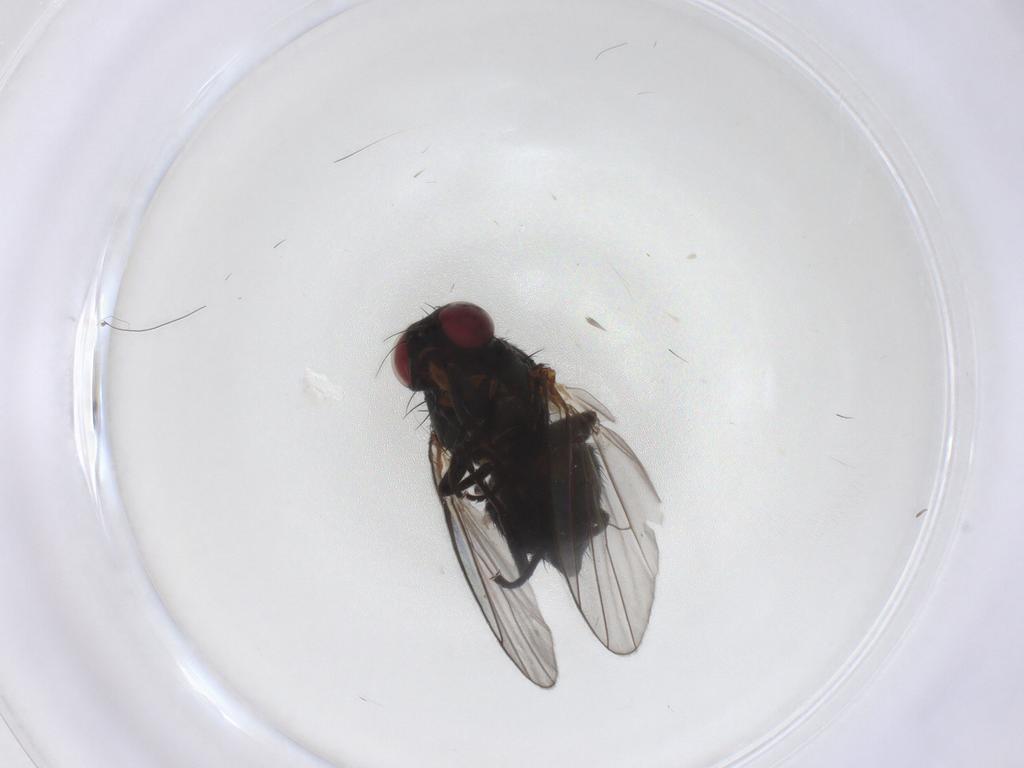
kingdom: Animalia
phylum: Arthropoda
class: Insecta
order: Diptera
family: Agromyzidae
